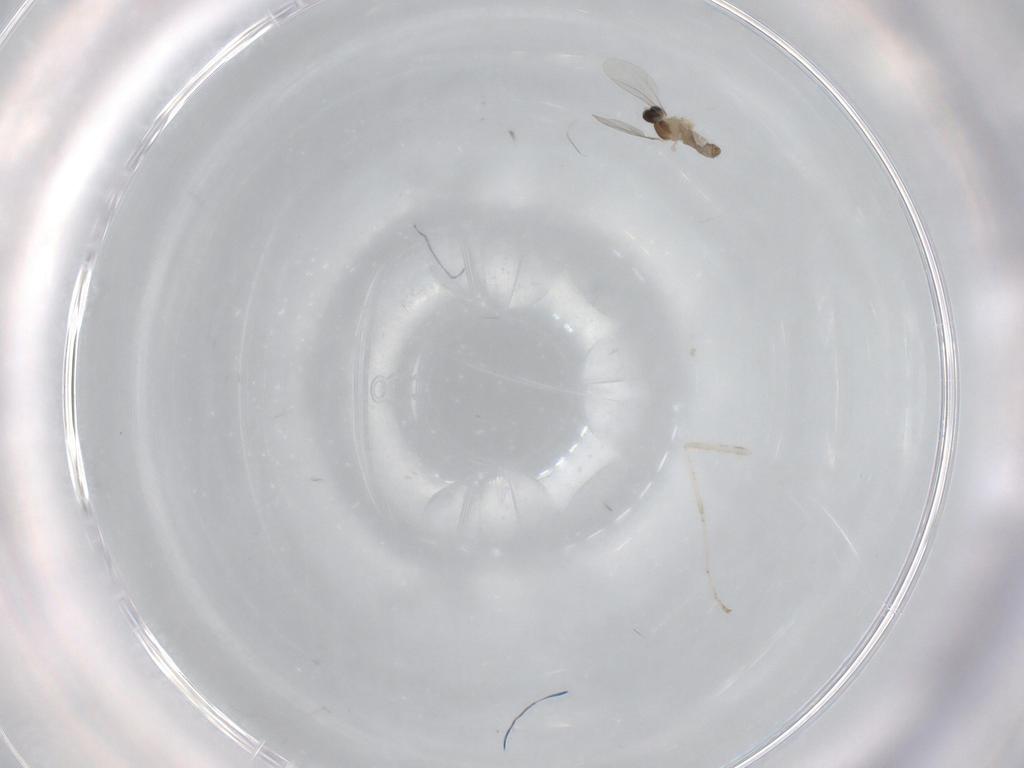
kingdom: Animalia
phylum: Arthropoda
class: Insecta
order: Diptera
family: Cecidomyiidae
